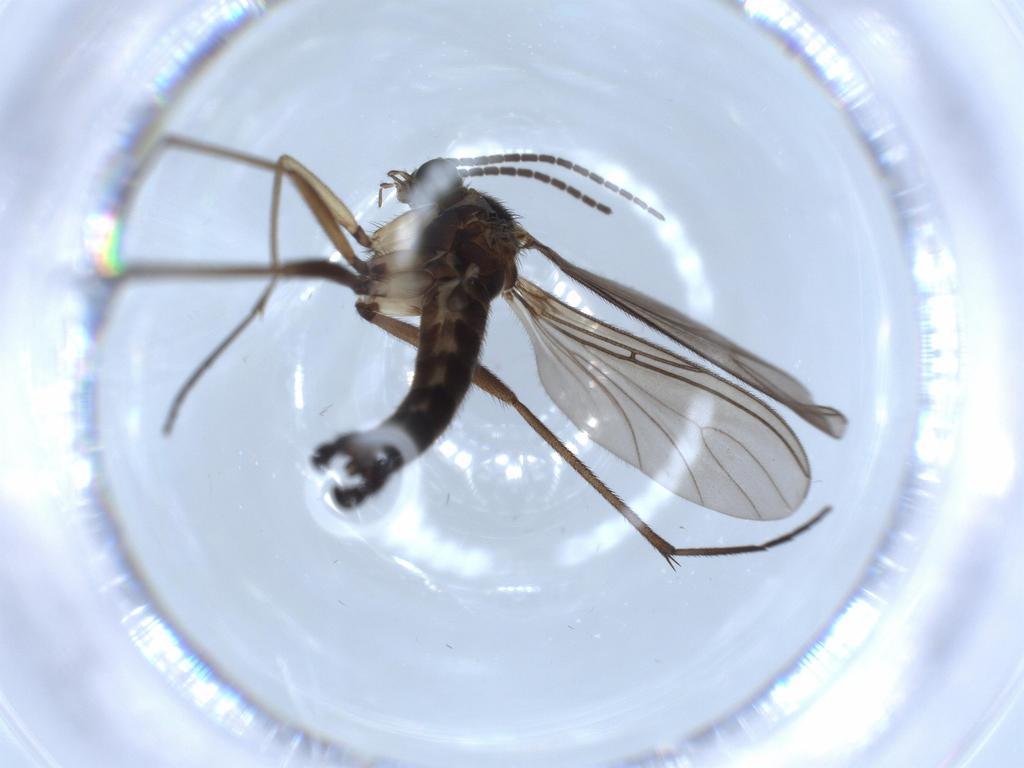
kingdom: Animalia
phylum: Arthropoda
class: Insecta
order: Diptera
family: Sciaridae
